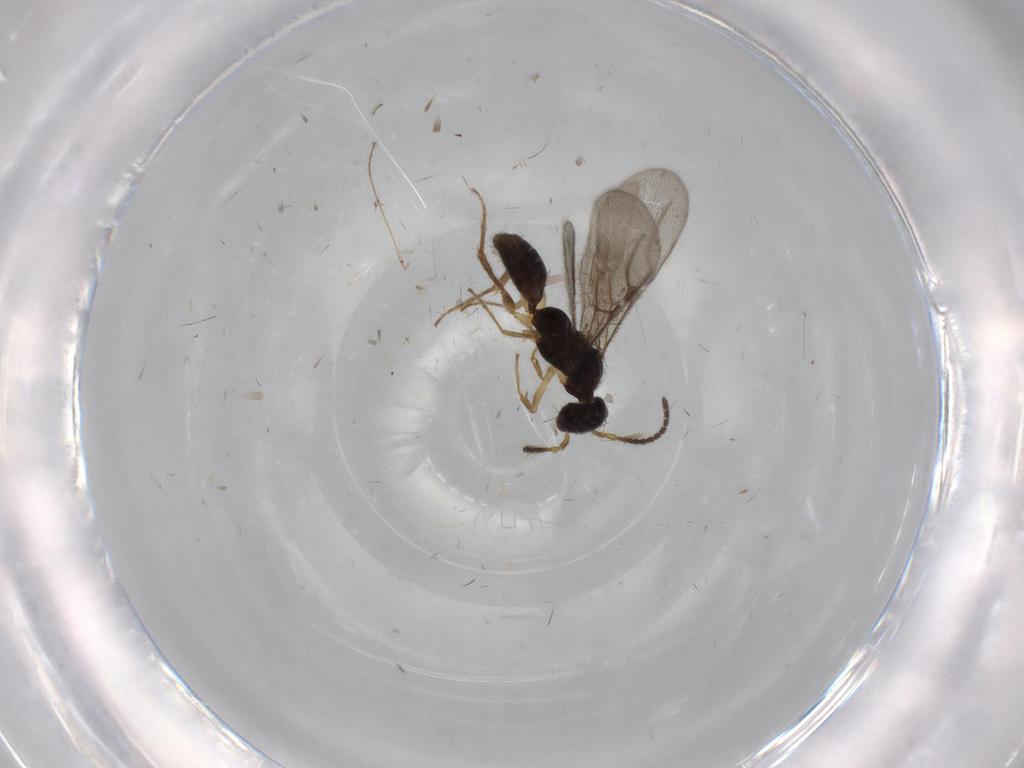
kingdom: Animalia
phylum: Arthropoda
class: Insecta
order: Hymenoptera
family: Bethylidae
